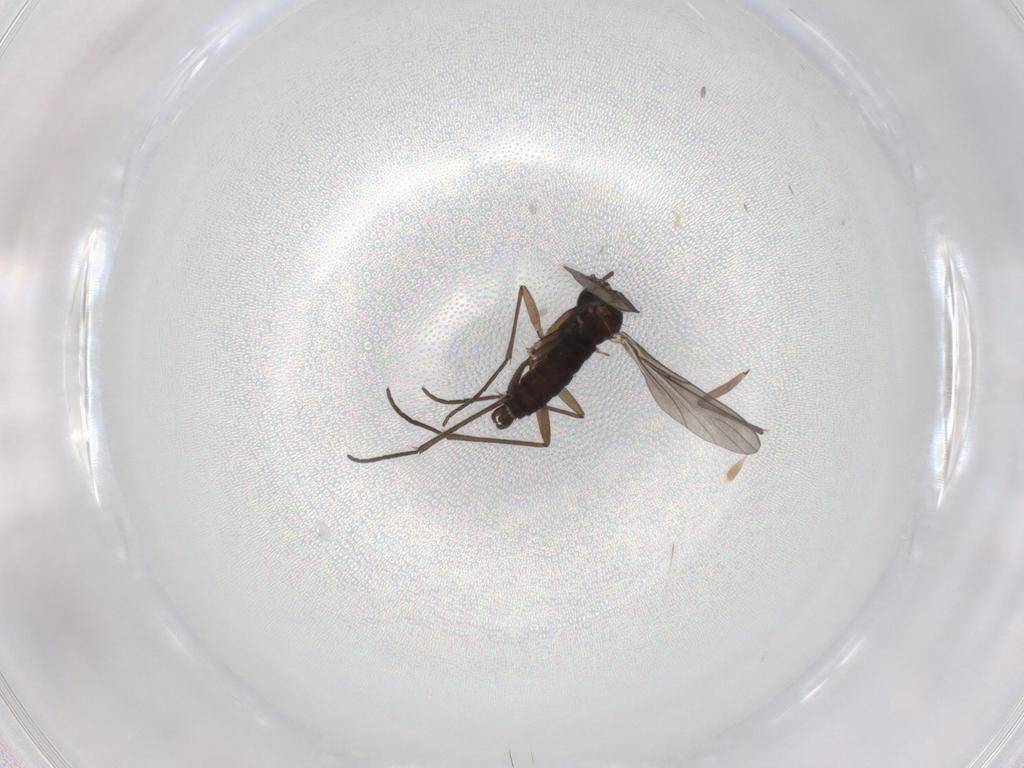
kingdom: Animalia
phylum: Arthropoda
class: Insecta
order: Diptera
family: Sciaridae
